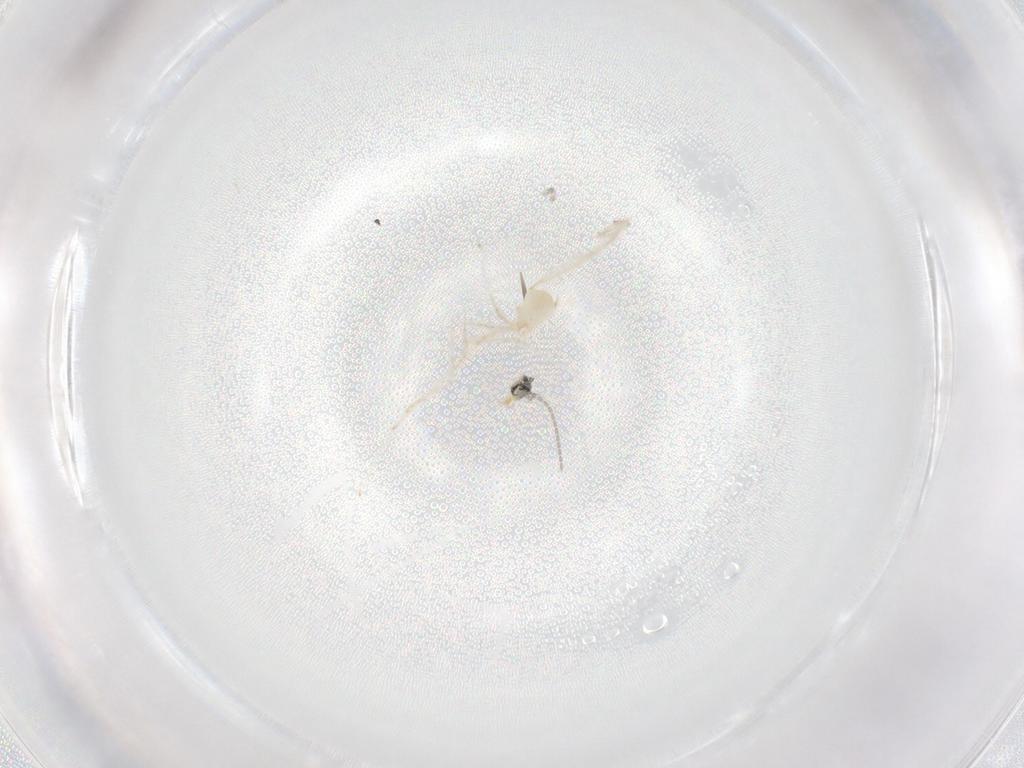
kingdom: Animalia
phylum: Arthropoda
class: Insecta
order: Diptera
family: Cecidomyiidae
